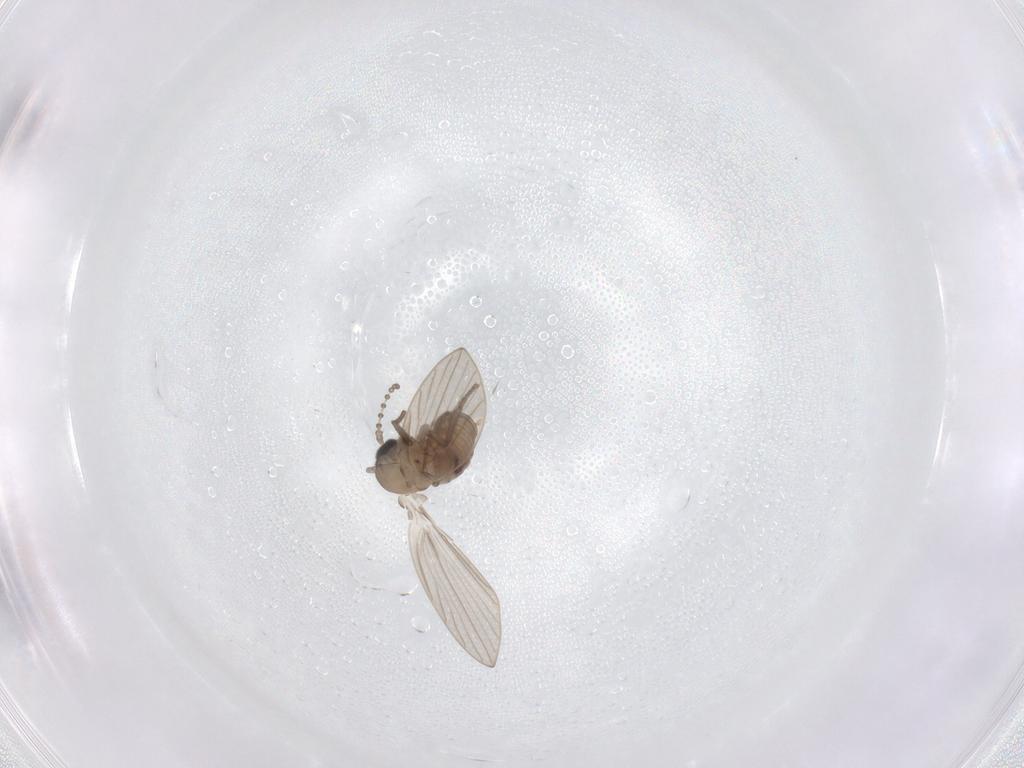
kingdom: Animalia
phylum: Arthropoda
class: Insecta
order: Diptera
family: Psychodidae
